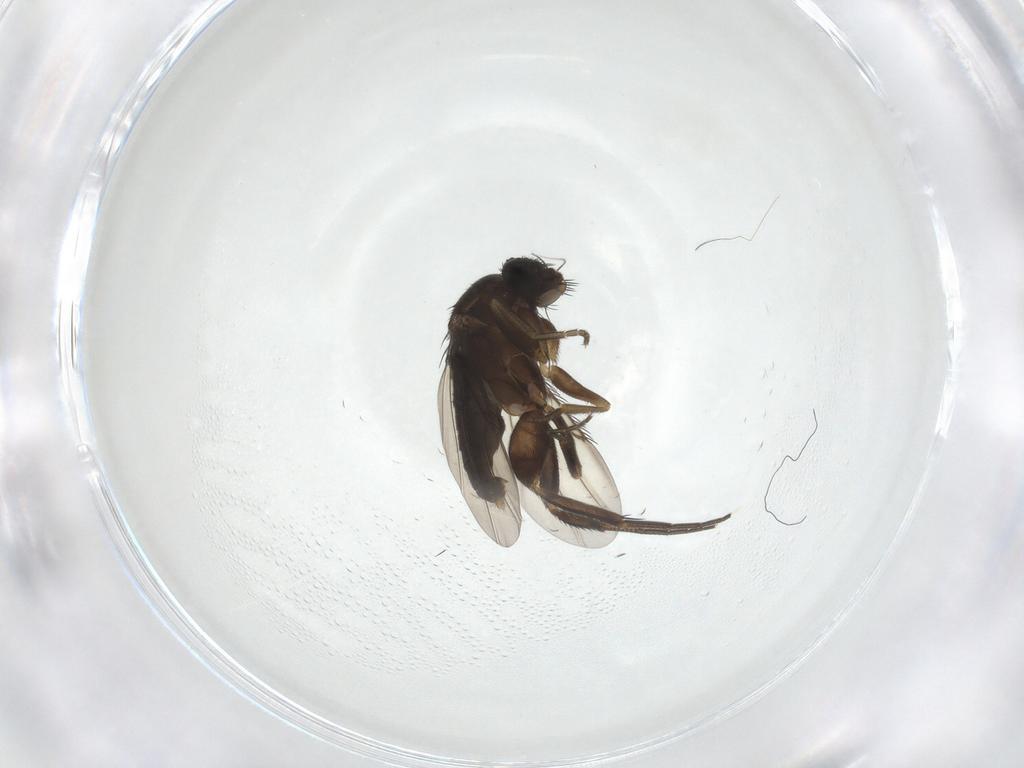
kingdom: Animalia
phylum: Arthropoda
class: Insecta
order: Diptera
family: Phoridae
